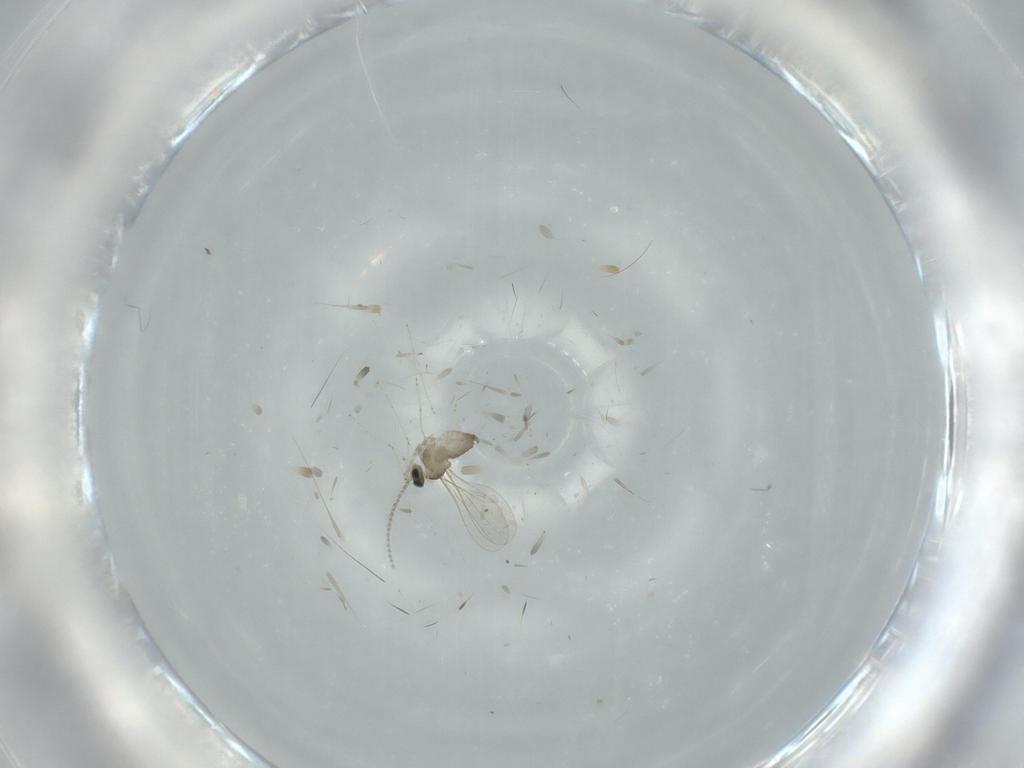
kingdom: Animalia
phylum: Arthropoda
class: Insecta
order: Diptera
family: Cecidomyiidae
